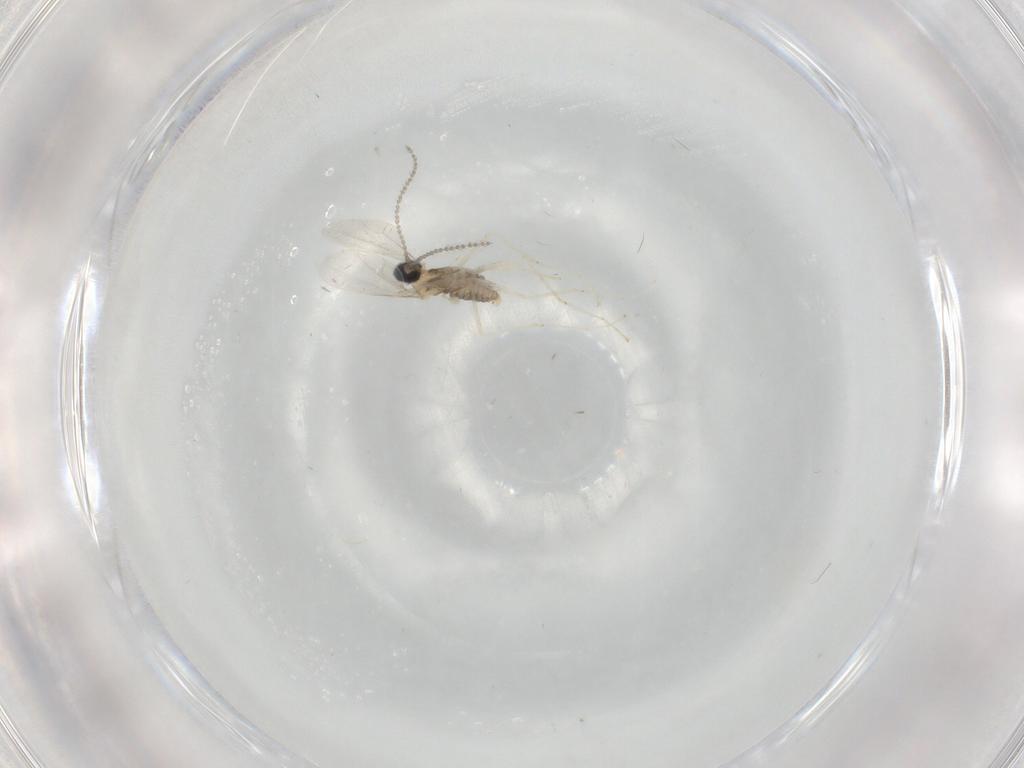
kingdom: Animalia
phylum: Arthropoda
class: Insecta
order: Diptera
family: Cecidomyiidae
